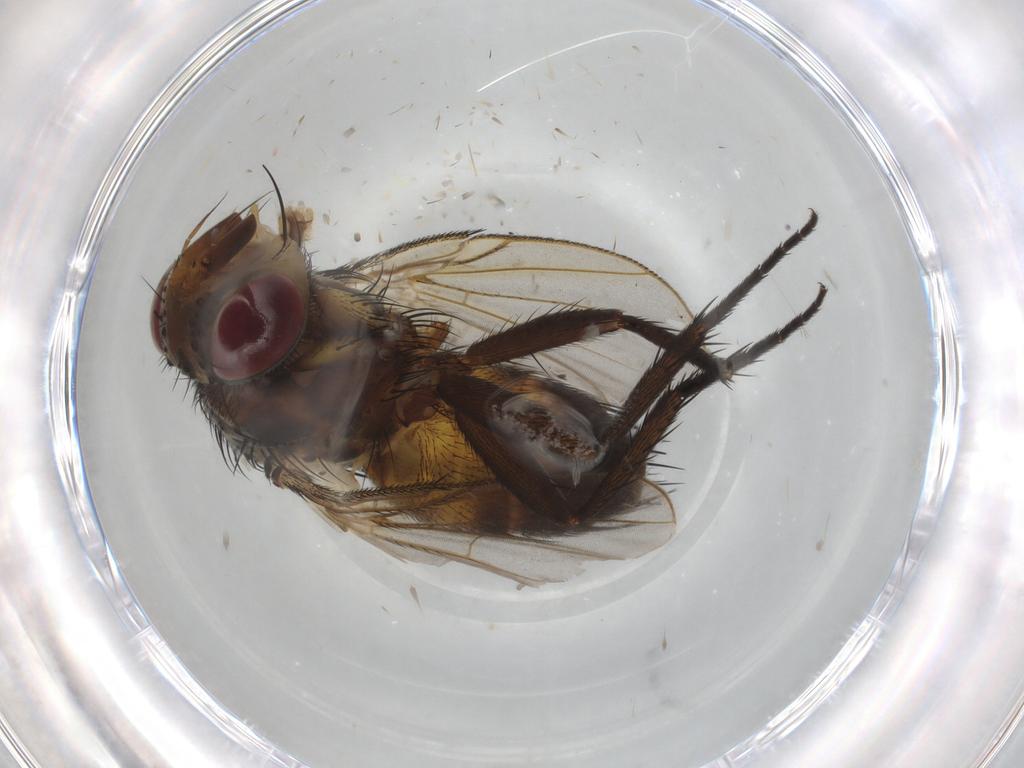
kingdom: Animalia
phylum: Arthropoda
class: Insecta
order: Diptera
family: Tachinidae
